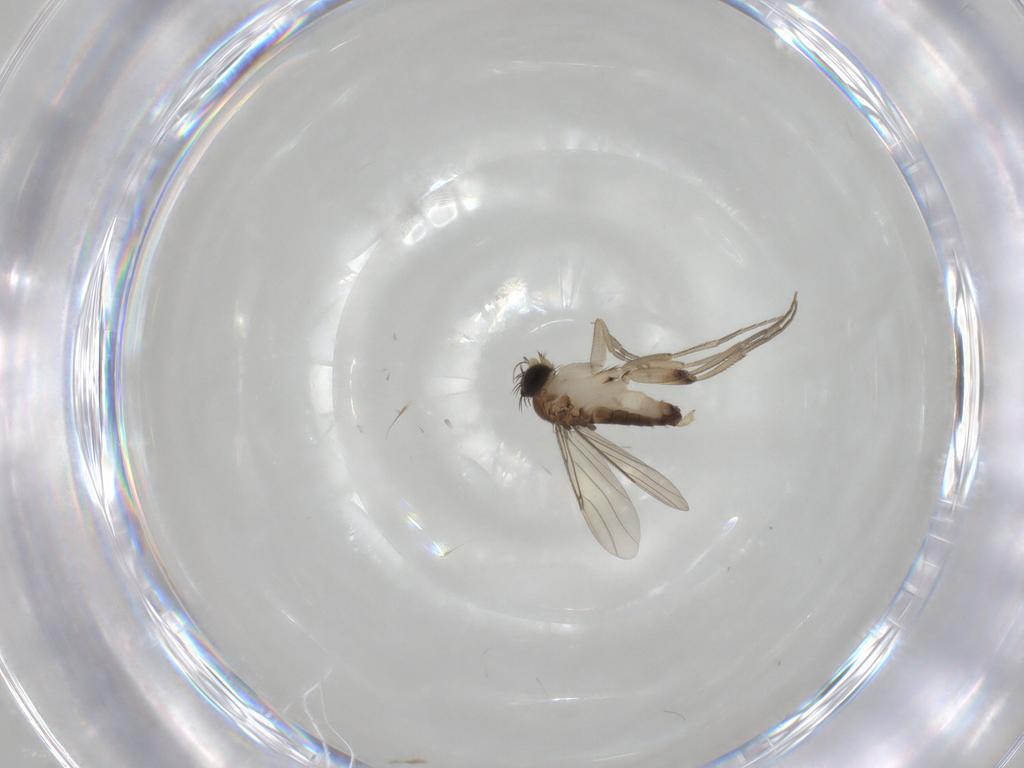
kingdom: Animalia
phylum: Arthropoda
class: Insecta
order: Diptera
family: Phoridae
